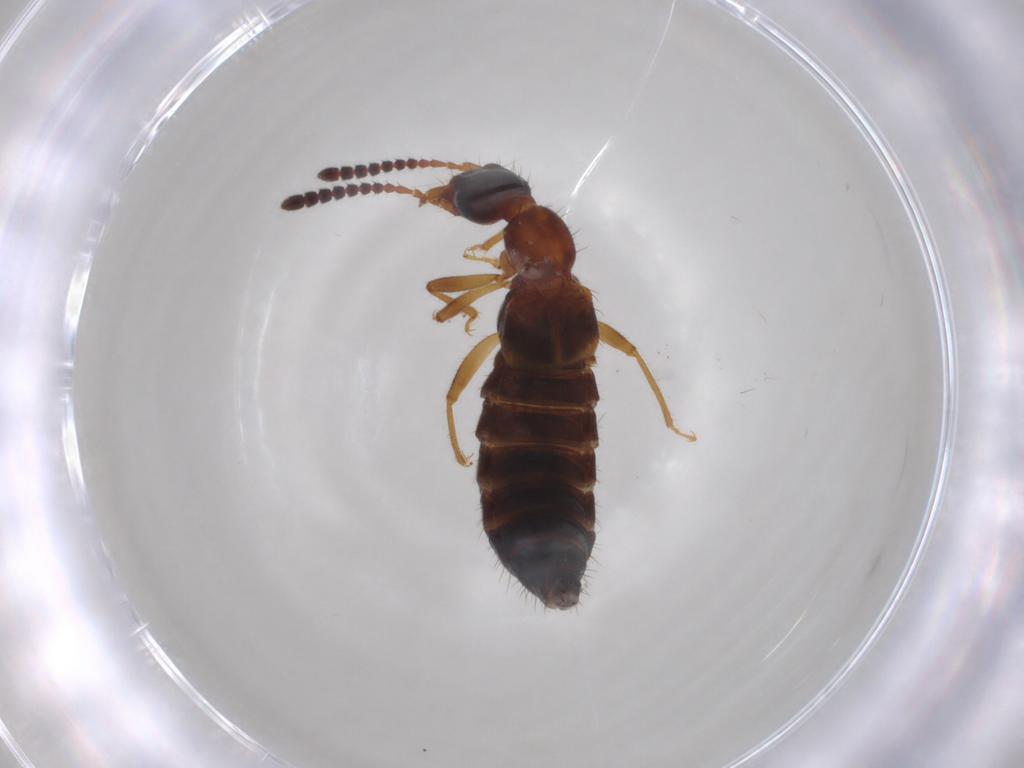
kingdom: Animalia
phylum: Arthropoda
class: Insecta
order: Coleoptera
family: Staphylinidae
